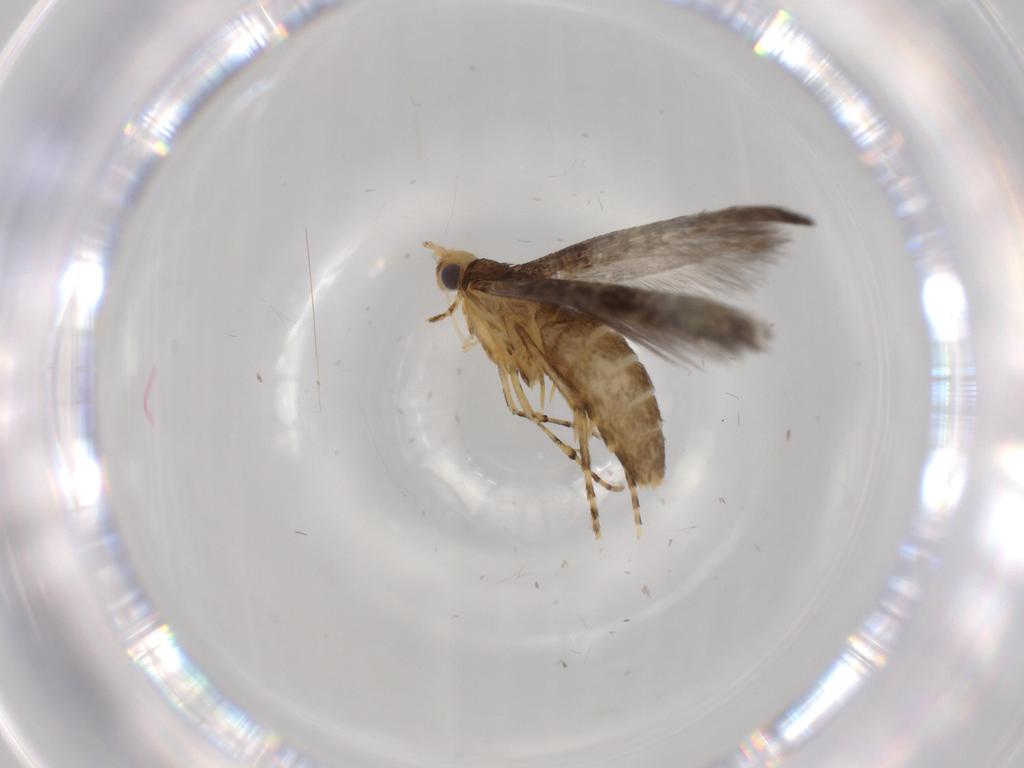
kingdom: Animalia
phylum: Arthropoda
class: Insecta
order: Lepidoptera
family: Argyresthiidae
